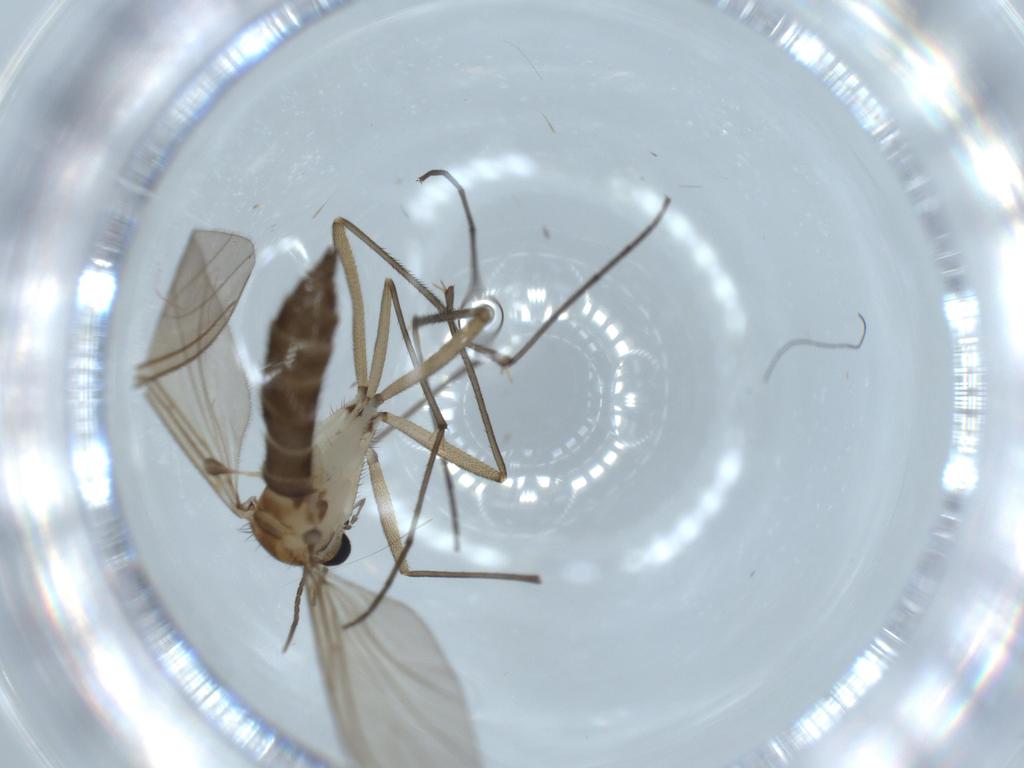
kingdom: Animalia
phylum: Arthropoda
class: Insecta
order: Diptera
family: Sciaridae
